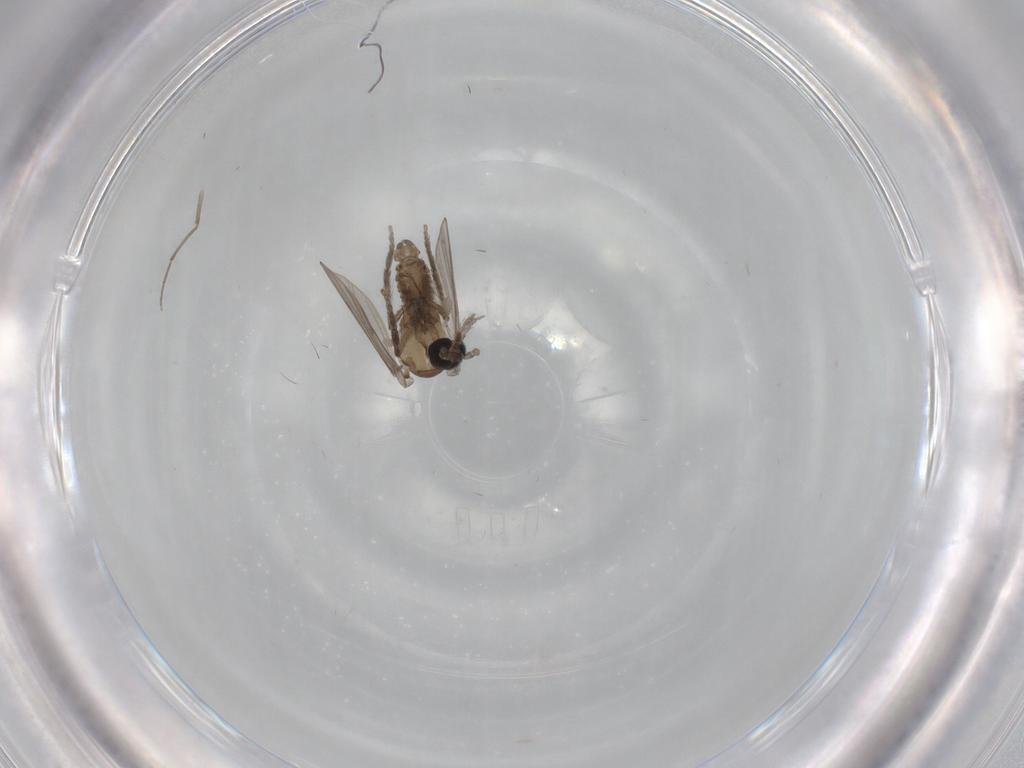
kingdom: Animalia
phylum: Arthropoda
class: Insecta
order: Diptera
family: Psychodidae
